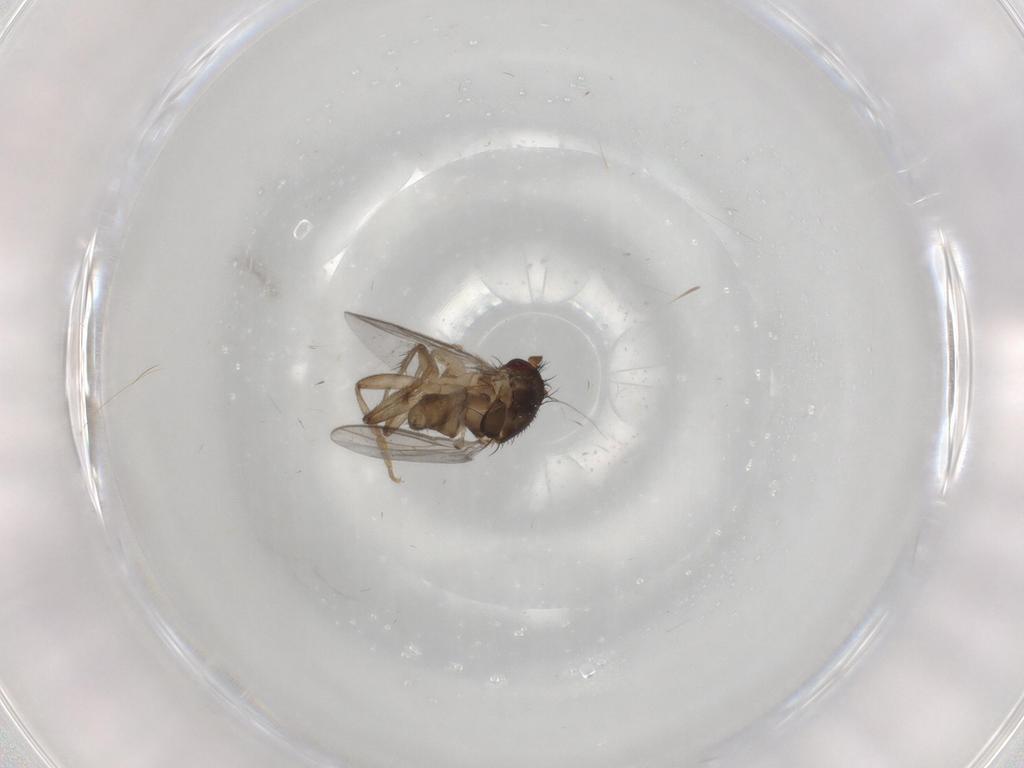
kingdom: Animalia
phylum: Arthropoda
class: Insecta
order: Diptera
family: Sphaeroceridae
